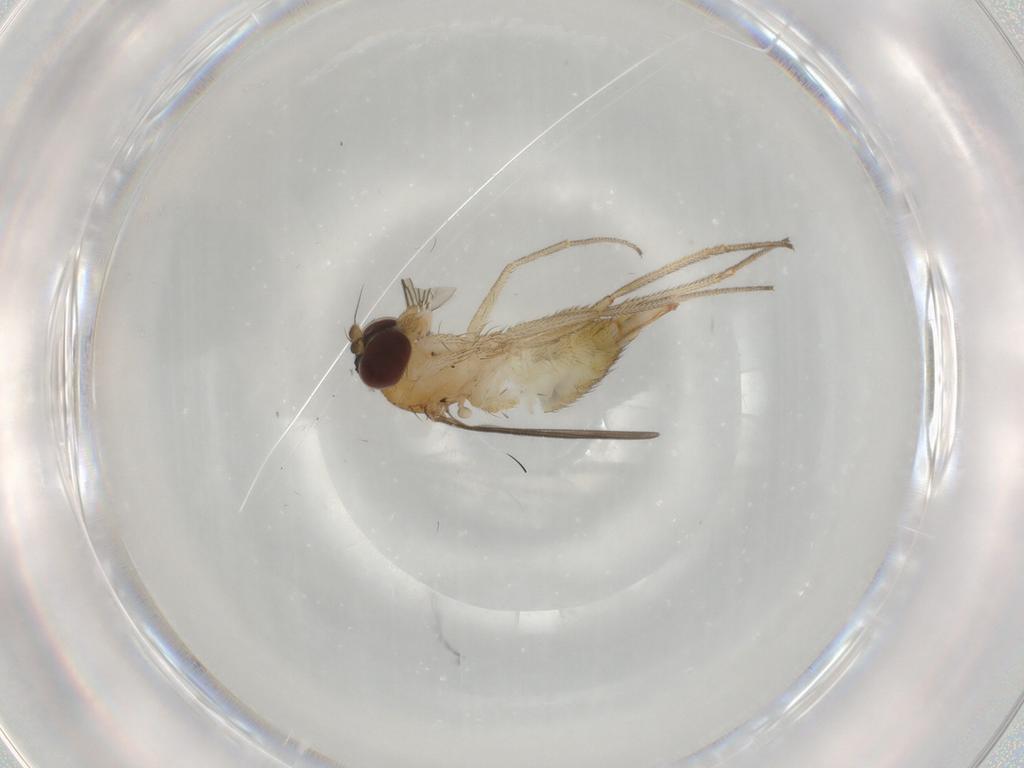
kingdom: Animalia
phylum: Arthropoda
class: Insecta
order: Diptera
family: Dolichopodidae
